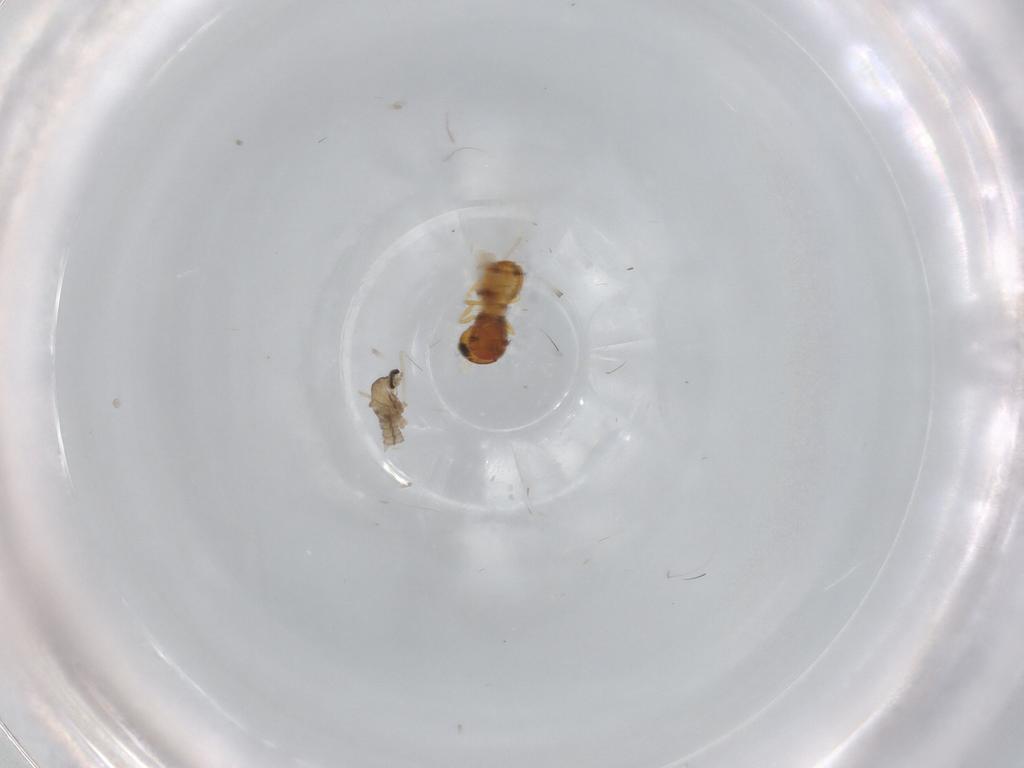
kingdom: Animalia
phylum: Arthropoda
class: Insecta
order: Diptera
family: Cecidomyiidae
